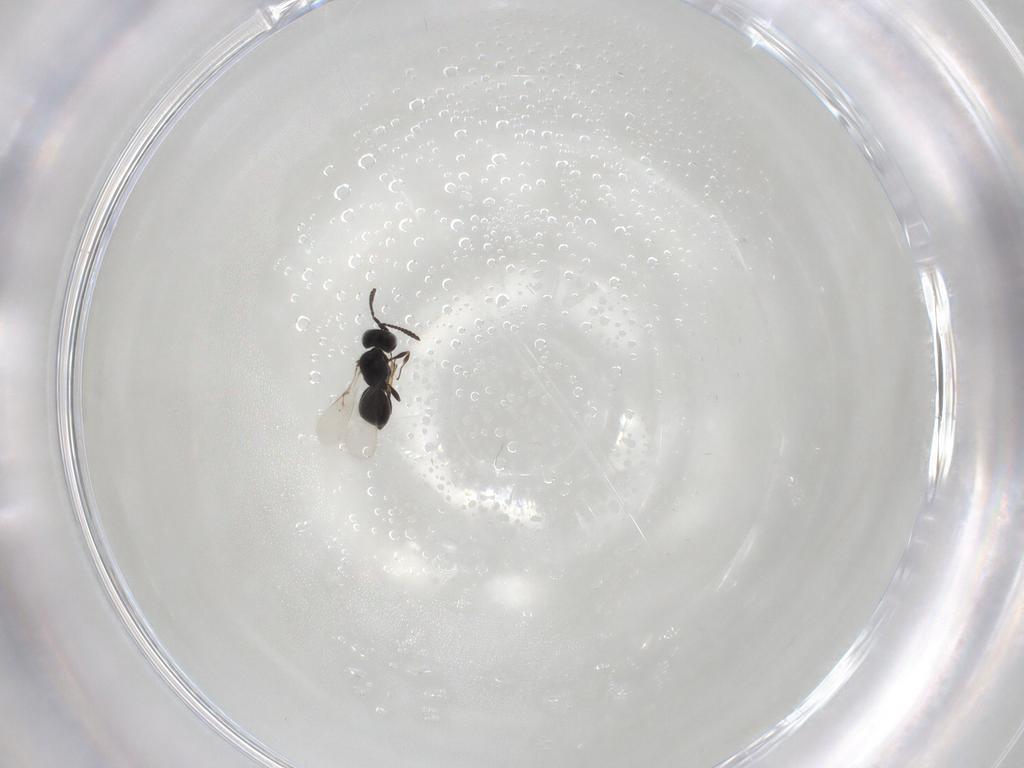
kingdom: Animalia
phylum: Arthropoda
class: Insecta
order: Hymenoptera
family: Scelionidae
